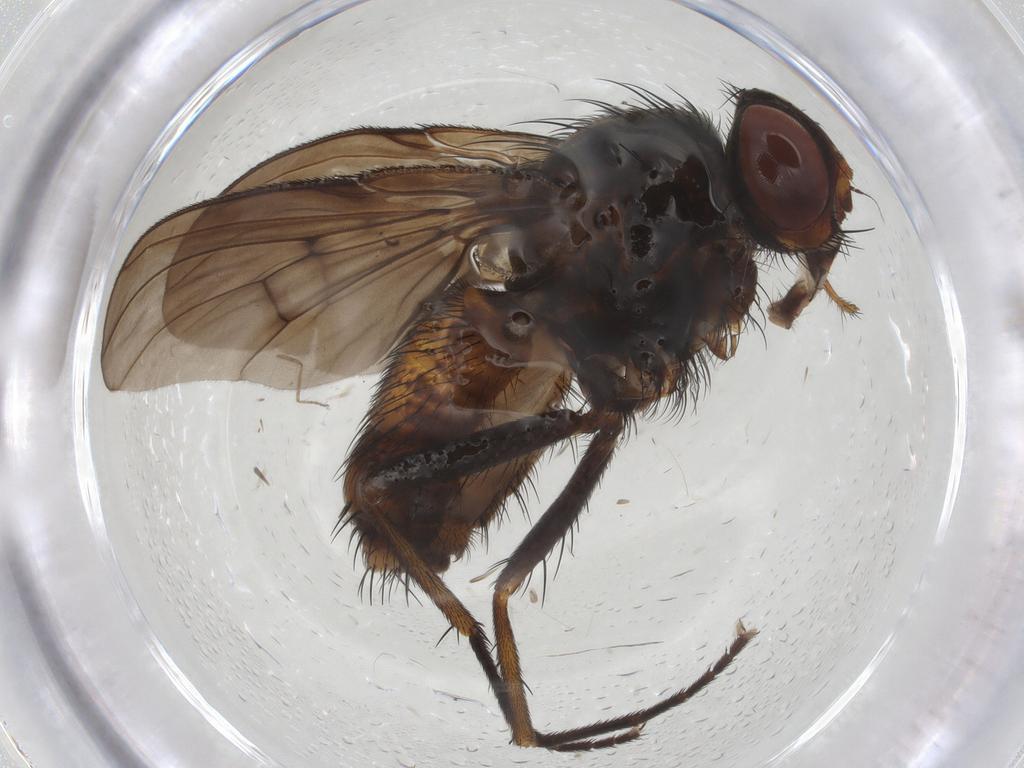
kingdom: Animalia
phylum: Arthropoda
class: Insecta
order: Diptera
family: Muscidae
